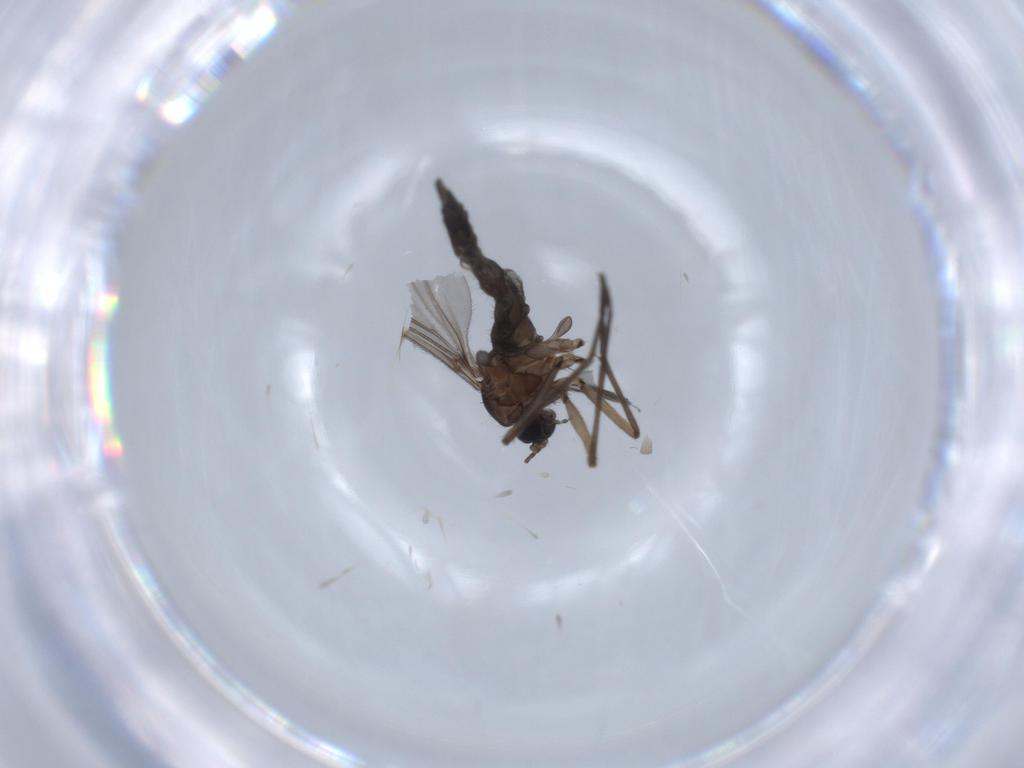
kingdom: Animalia
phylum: Arthropoda
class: Insecta
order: Diptera
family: Sciaridae
